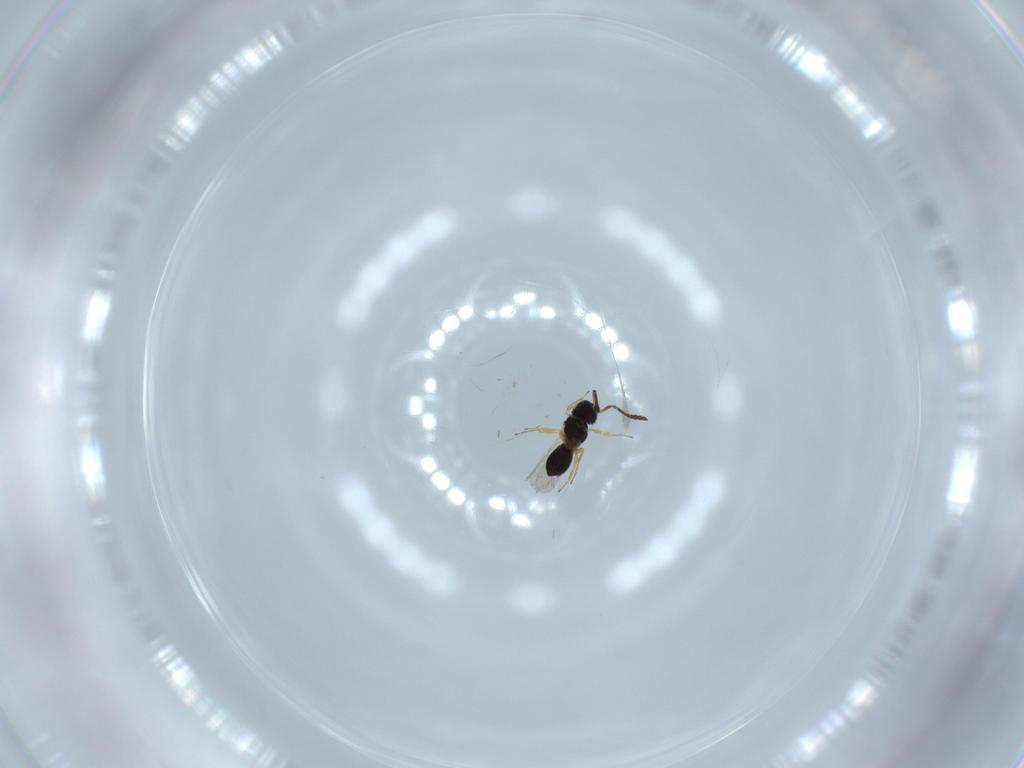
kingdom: Animalia
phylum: Arthropoda
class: Insecta
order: Hymenoptera
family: Scelionidae
